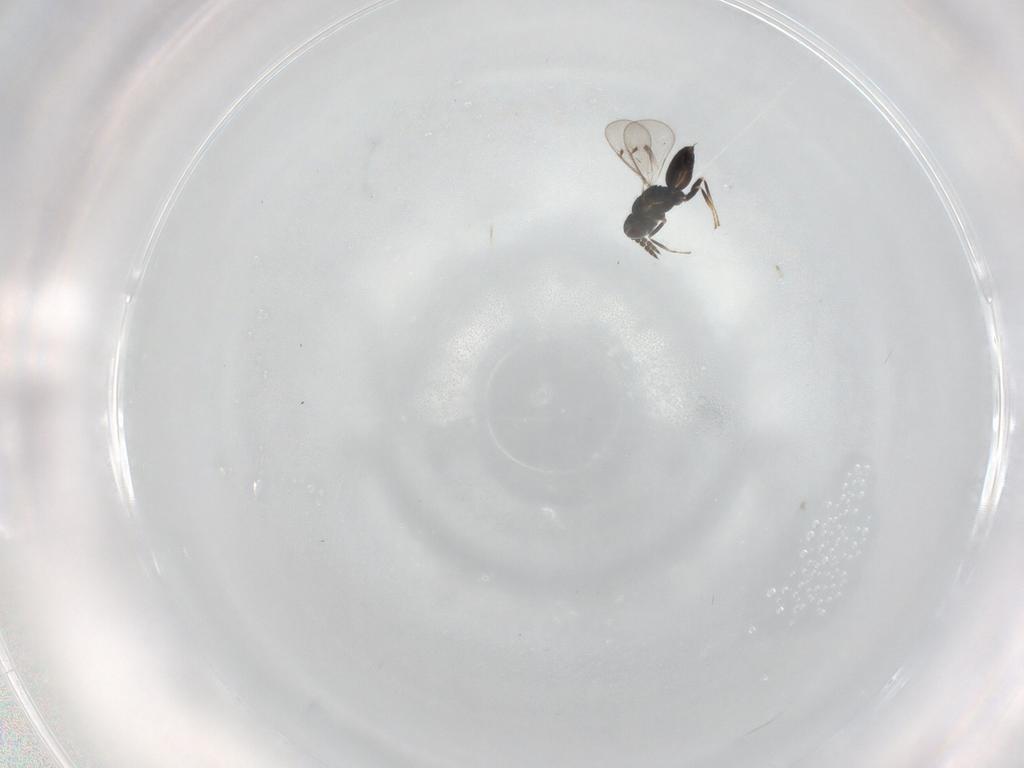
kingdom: Animalia
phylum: Arthropoda
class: Insecta
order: Hymenoptera
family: Eulophidae
